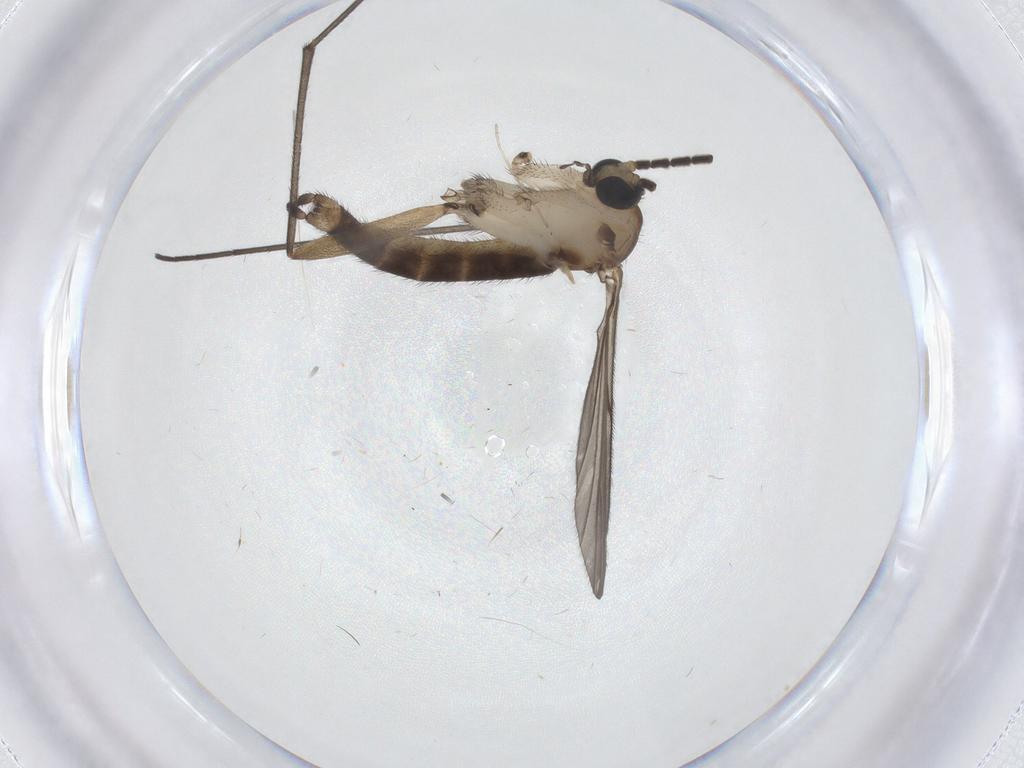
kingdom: Animalia
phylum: Arthropoda
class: Insecta
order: Diptera
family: Sciaridae
